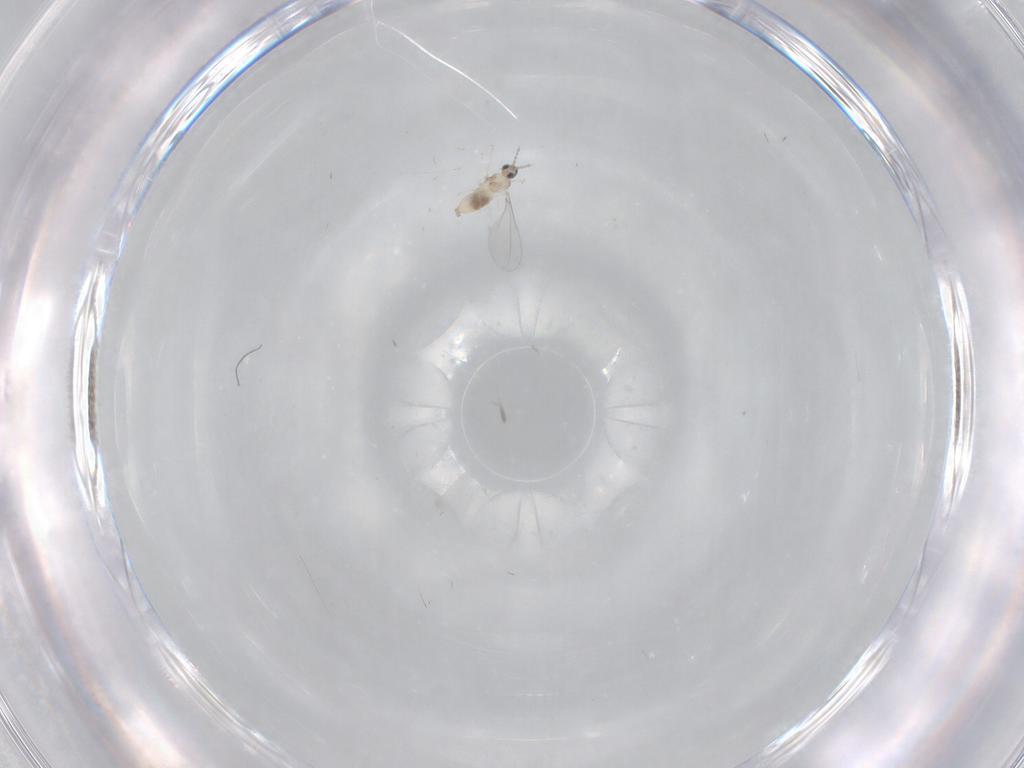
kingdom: Animalia
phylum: Arthropoda
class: Insecta
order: Diptera
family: Cecidomyiidae
